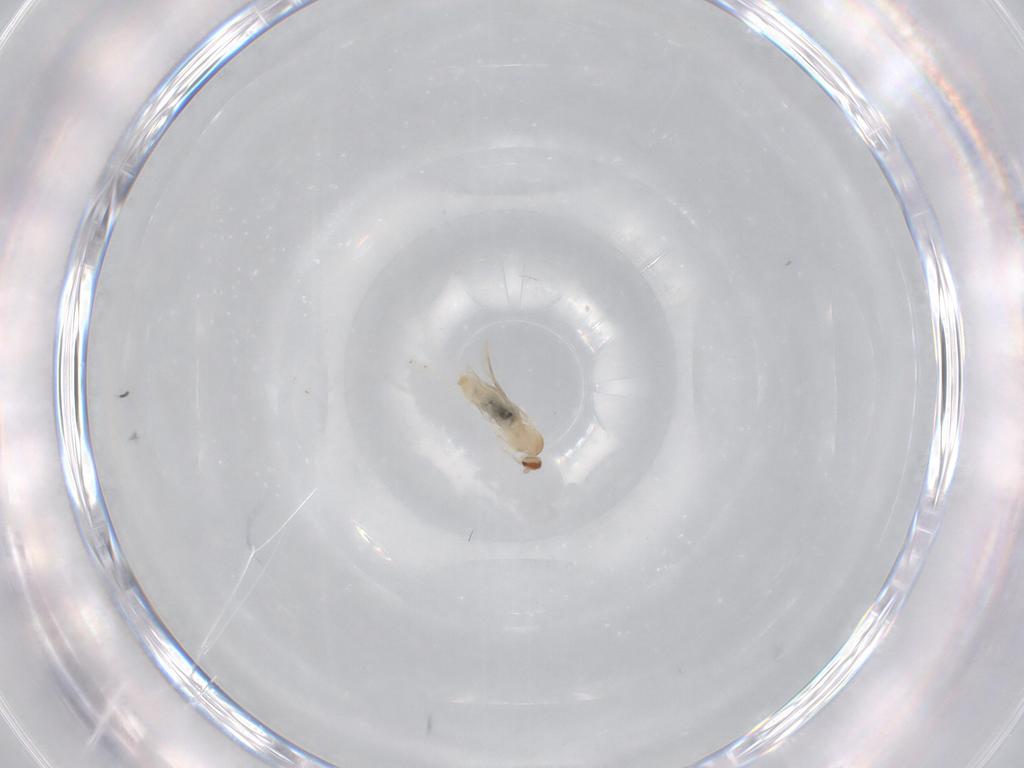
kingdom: Animalia
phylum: Arthropoda
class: Insecta
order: Diptera
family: Cecidomyiidae
